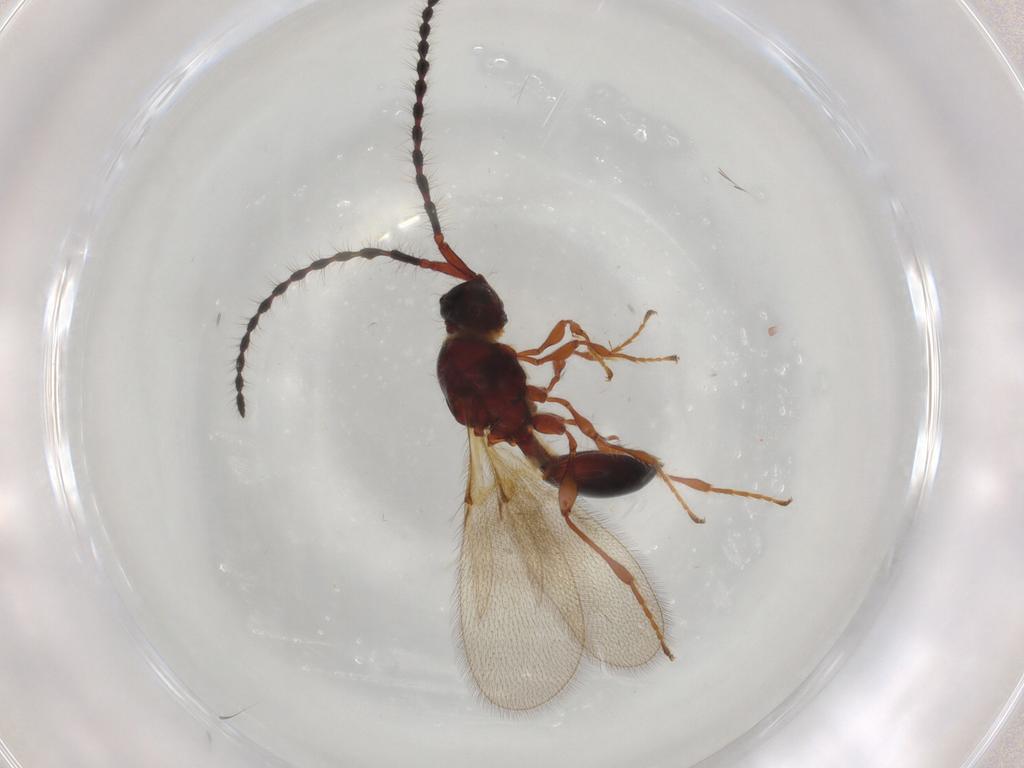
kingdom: Animalia
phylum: Arthropoda
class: Insecta
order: Hymenoptera
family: Diapriidae
